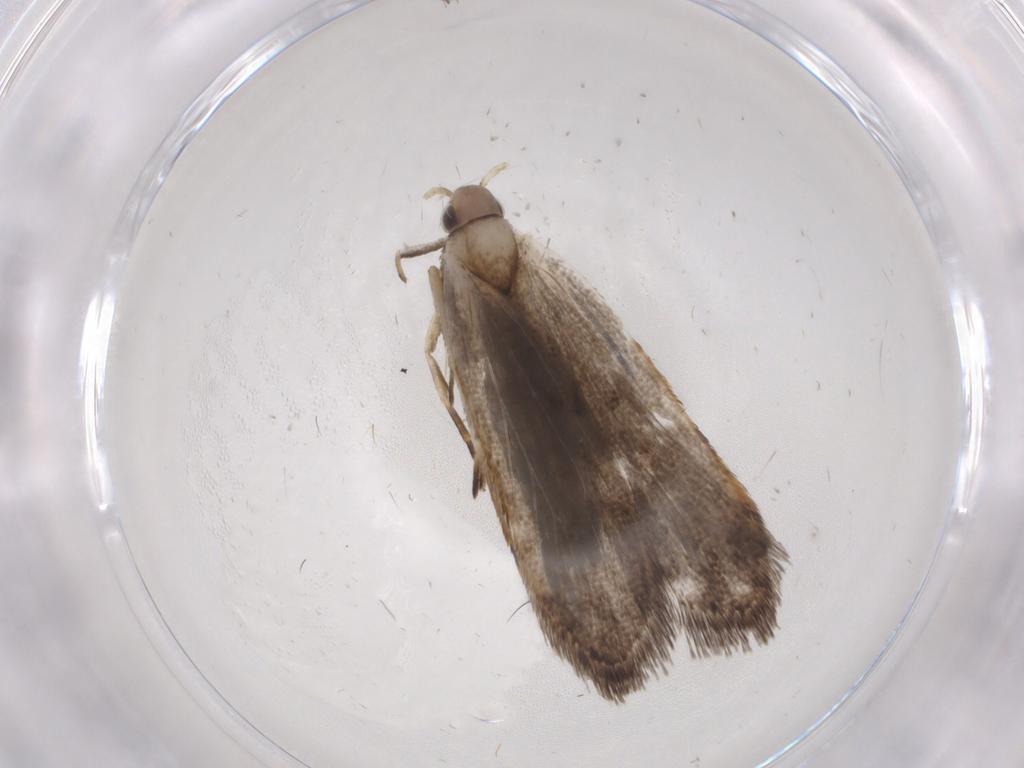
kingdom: Animalia
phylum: Arthropoda
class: Insecta
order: Lepidoptera
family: Gelechiidae
